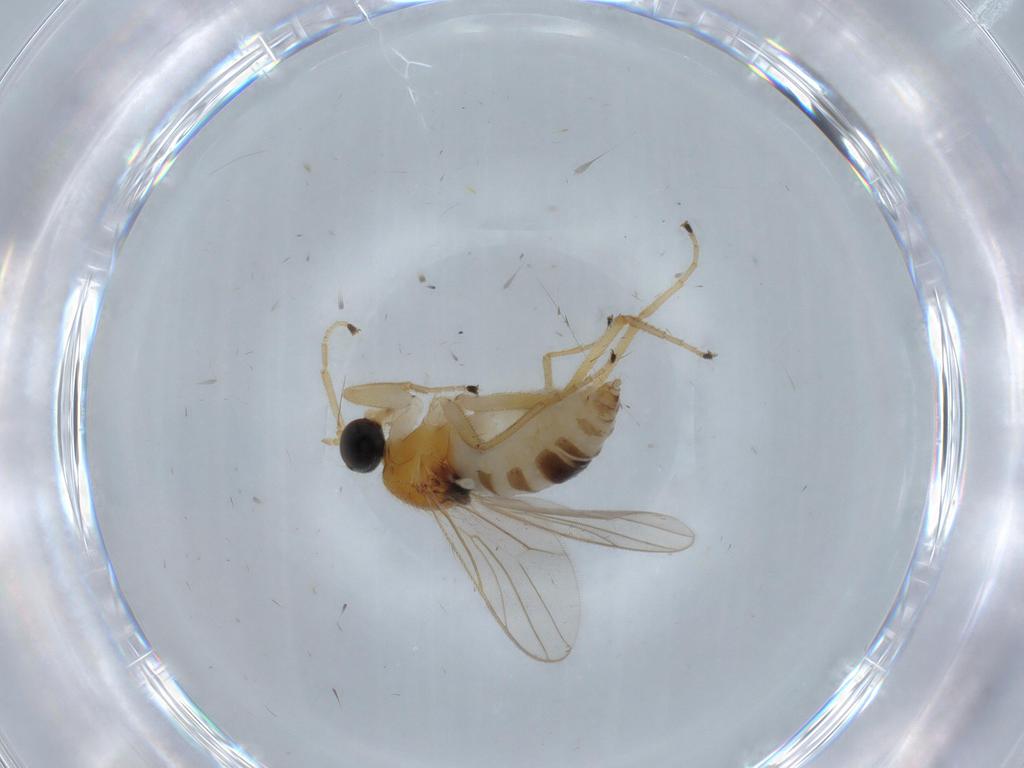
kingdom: Animalia
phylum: Arthropoda
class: Insecta
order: Diptera
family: Hybotidae
